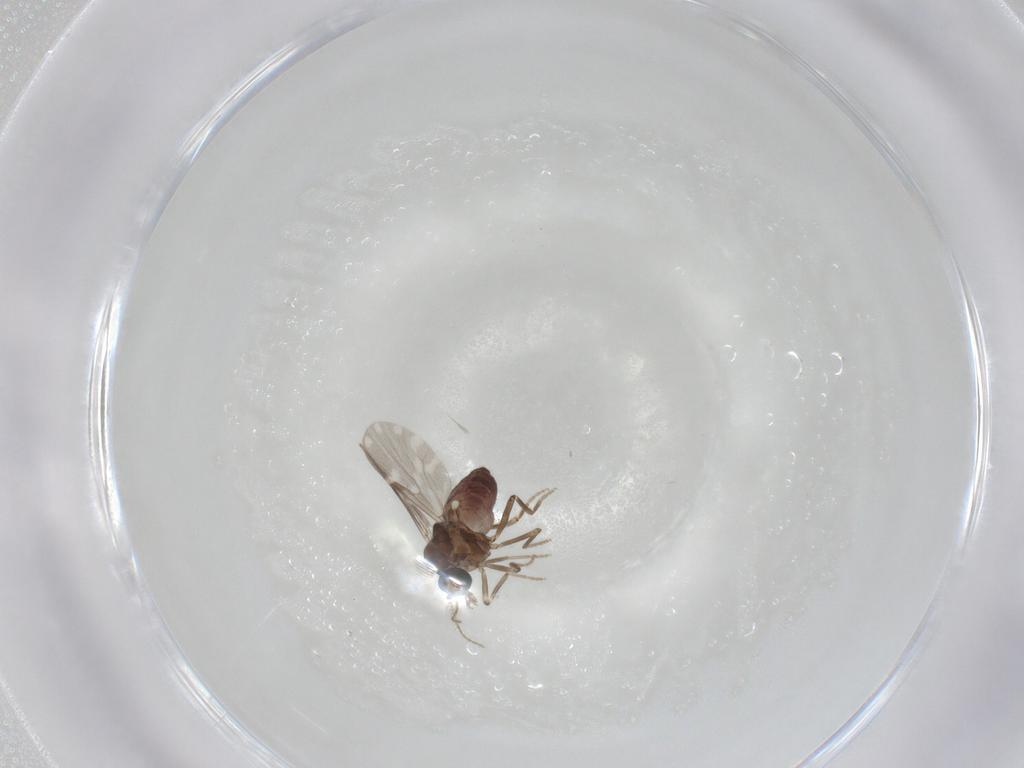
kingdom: Animalia
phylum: Arthropoda
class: Insecta
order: Diptera
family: Ceratopogonidae
